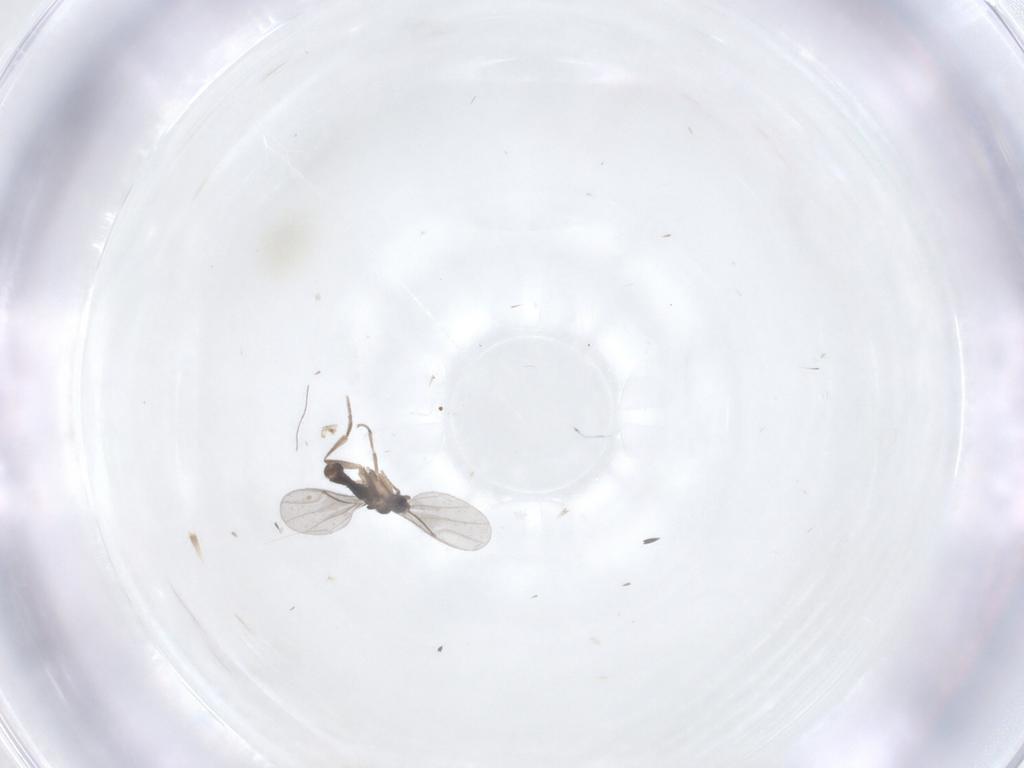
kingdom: Animalia
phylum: Arthropoda
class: Insecta
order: Diptera
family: Sciaridae
